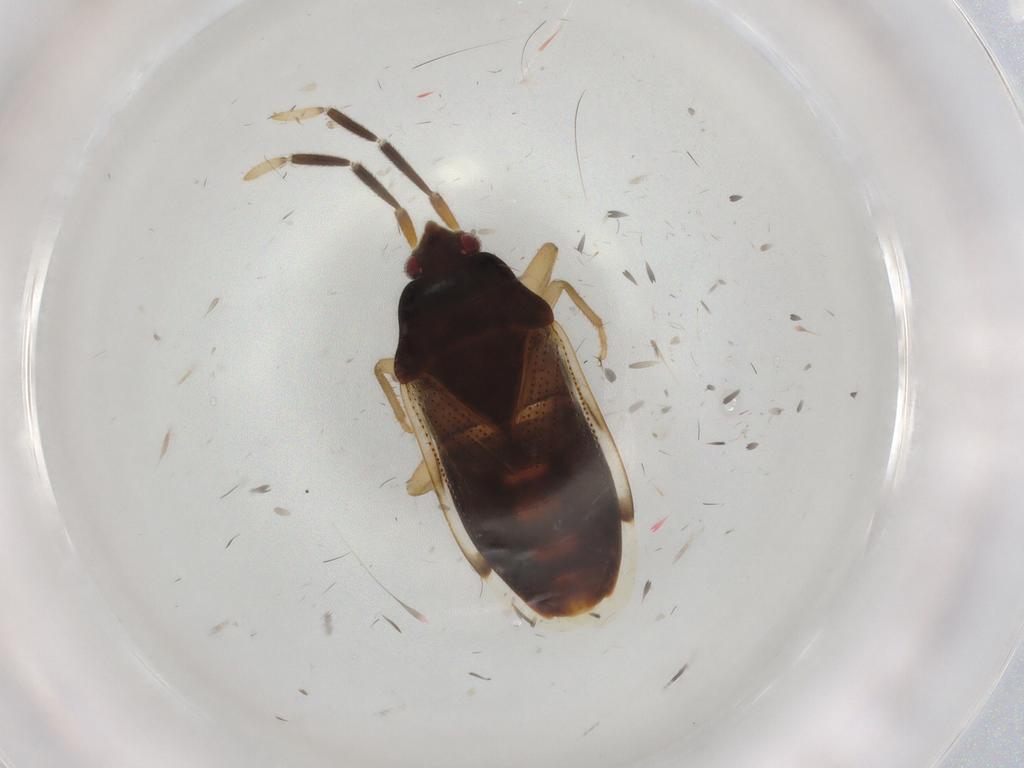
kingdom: Animalia
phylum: Arthropoda
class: Insecta
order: Hemiptera
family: Rhyparochromidae
